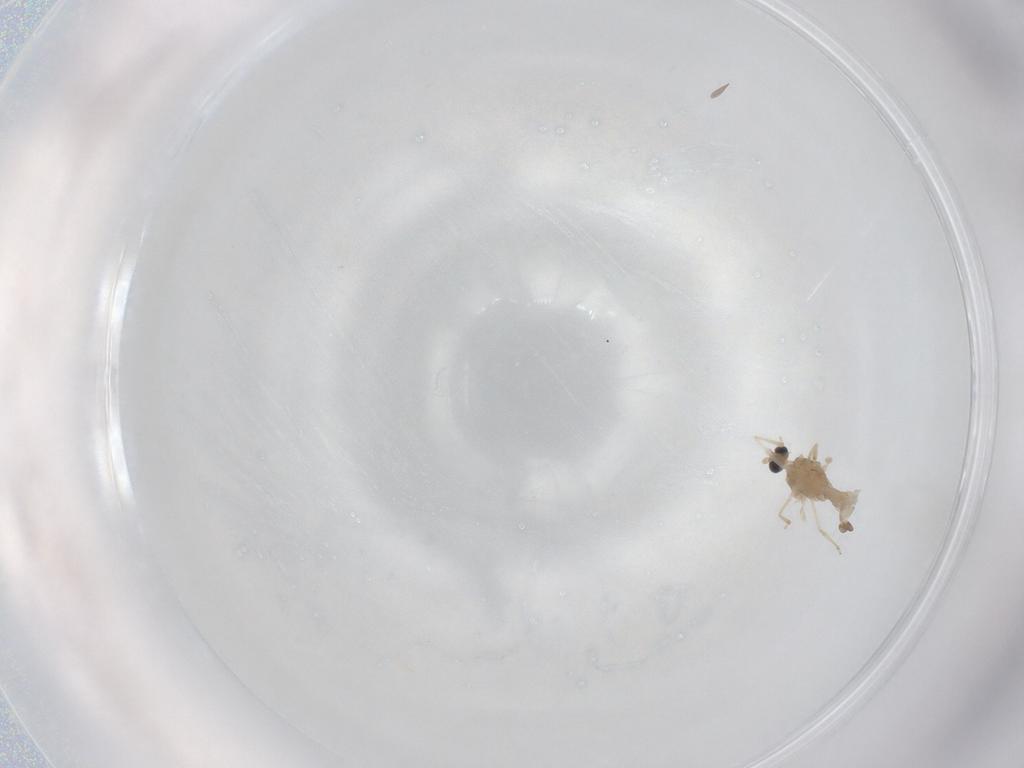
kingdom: Animalia
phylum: Arthropoda
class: Insecta
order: Diptera
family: Cecidomyiidae
